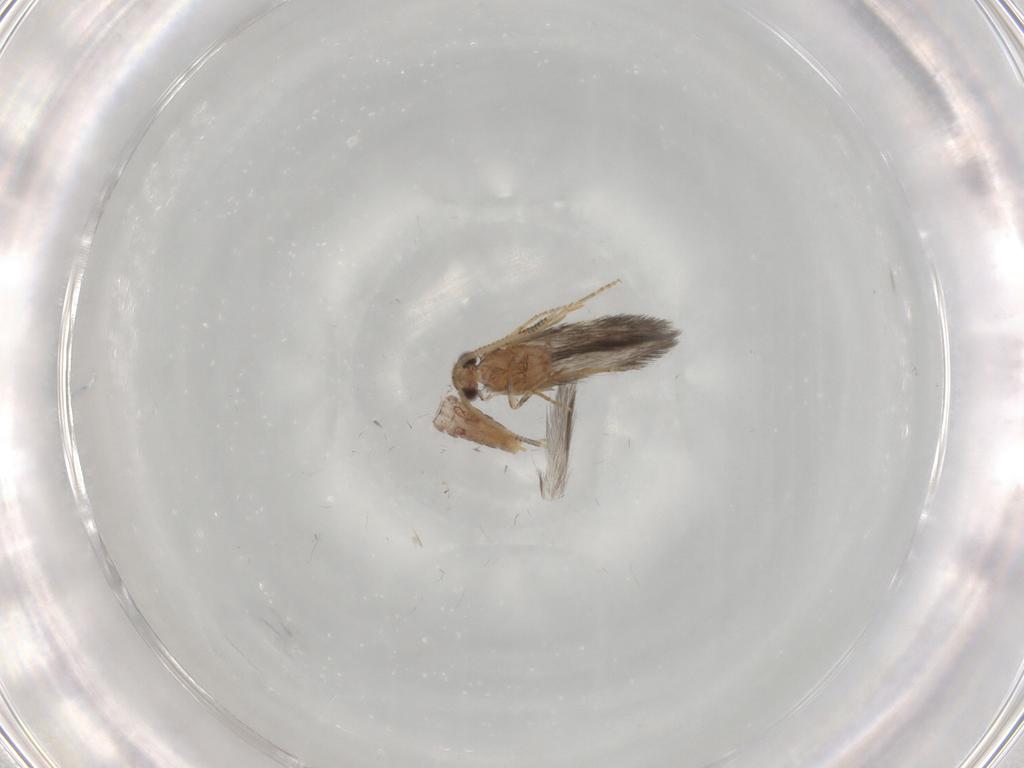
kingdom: Animalia
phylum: Arthropoda
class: Insecta
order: Trichoptera
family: Hydroptilidae
